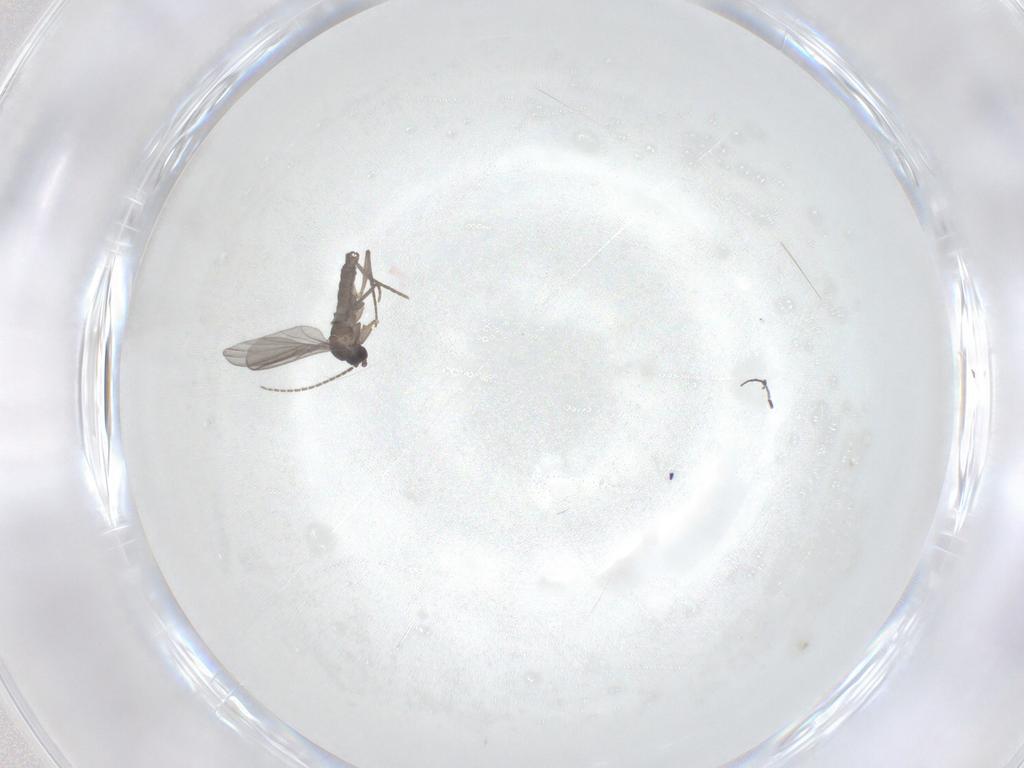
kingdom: Animalia
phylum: Arthropoda
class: Insecta
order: Diptera
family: Sciaridae
